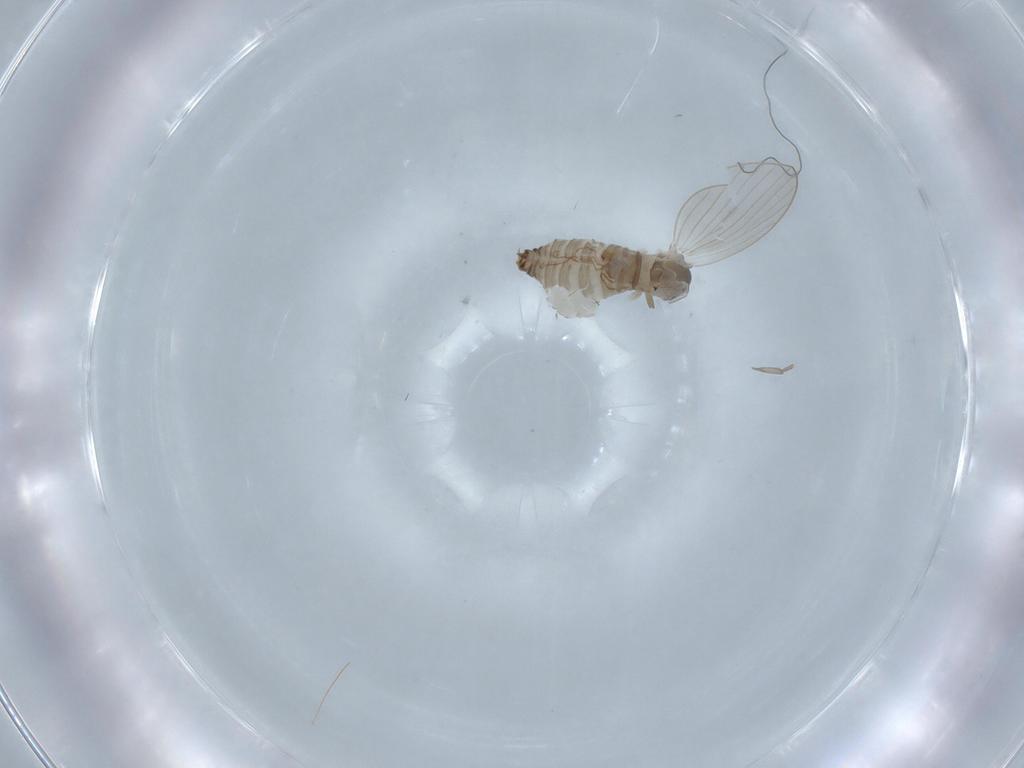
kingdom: Animalia
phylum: Arthropoda
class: Insecta
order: Diptera
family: Psychodidae
